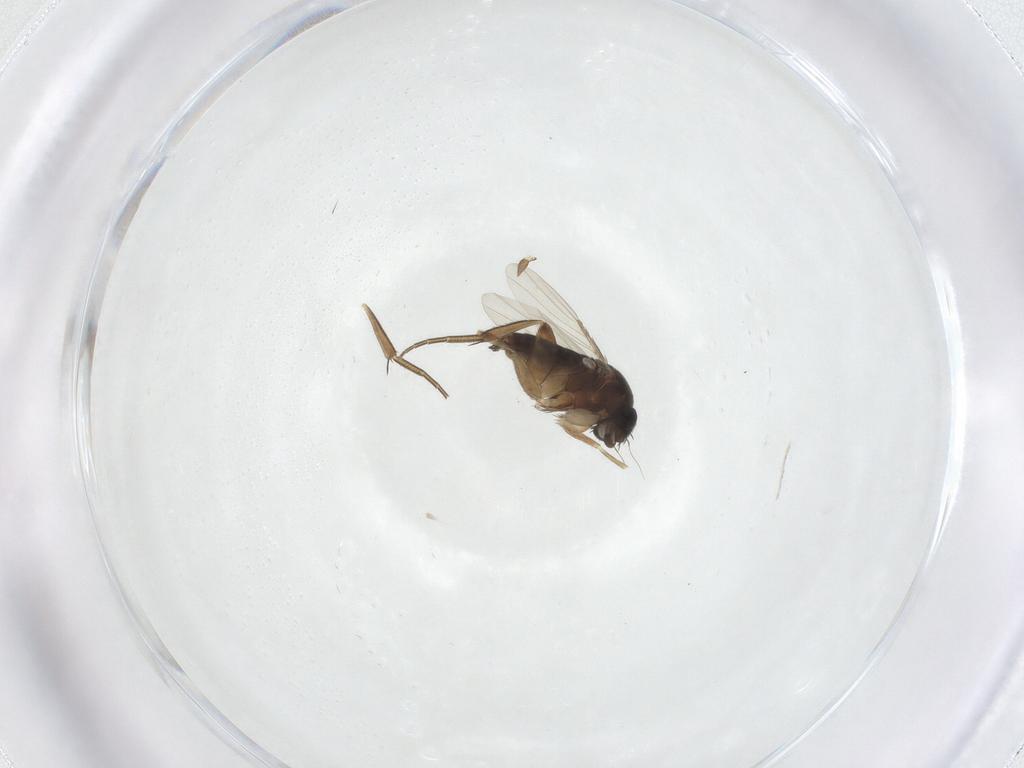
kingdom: Animalia
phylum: Arthropoda
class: Insecta
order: Diptera
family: Phoridae
